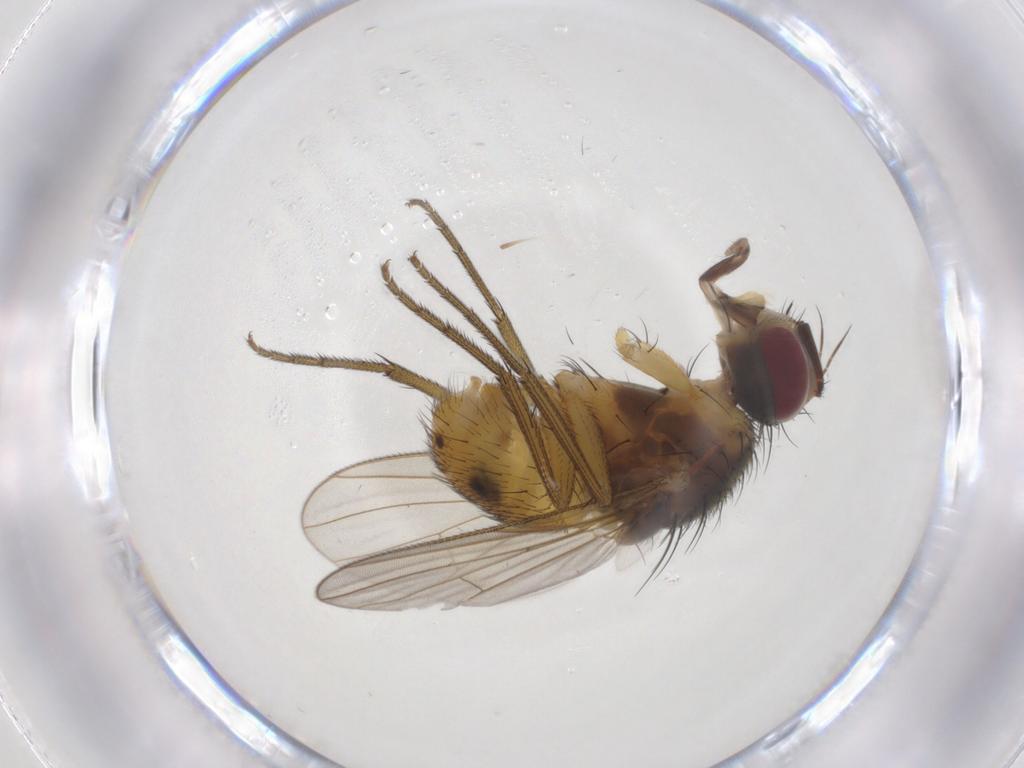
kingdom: Animalia
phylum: Arthropoda
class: Insecta
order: Diptera
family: Muscidae
